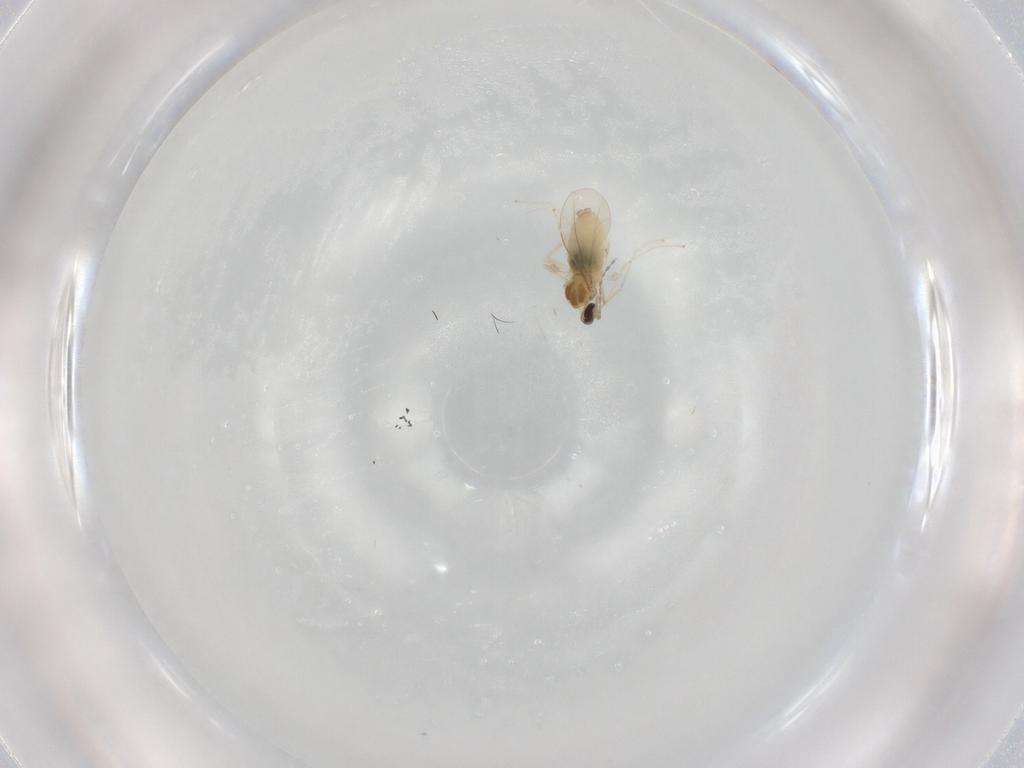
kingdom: Animalia
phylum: Arthropoda
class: Insecta
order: Diptera
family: Cecidomyiidae
